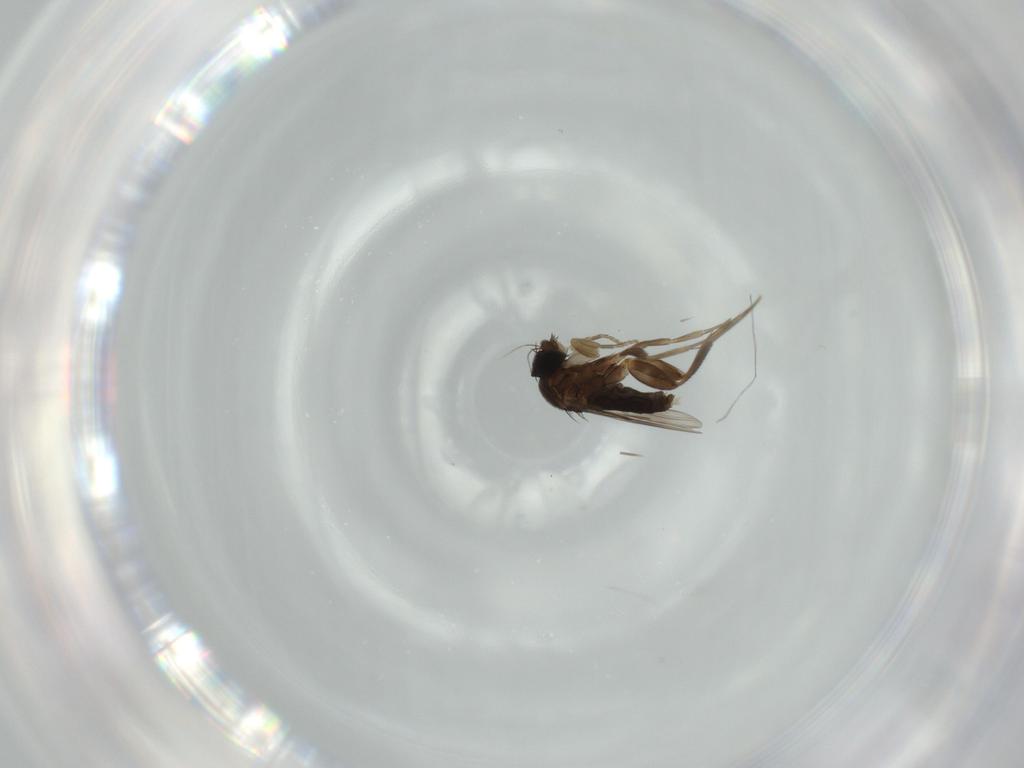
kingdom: Animalia
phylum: Arthropoda
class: Insecta
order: Diptera
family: Phoridae
